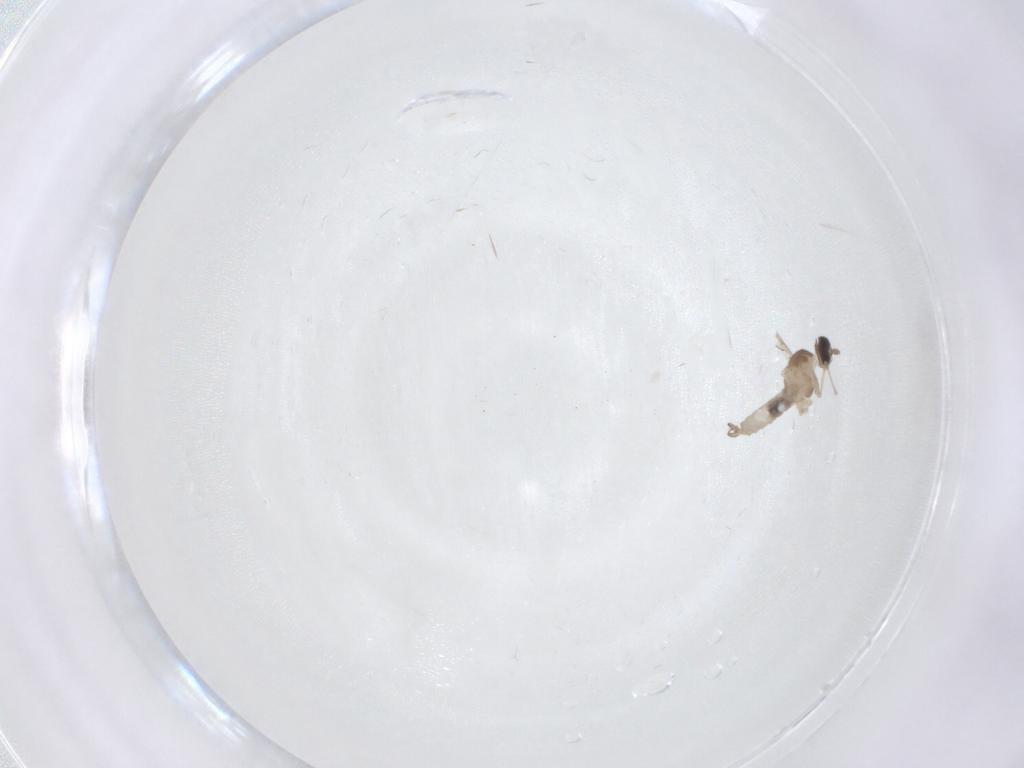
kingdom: Animalia
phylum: Arthropoda
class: Insecta
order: Diptera
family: Cecidomyiidae
